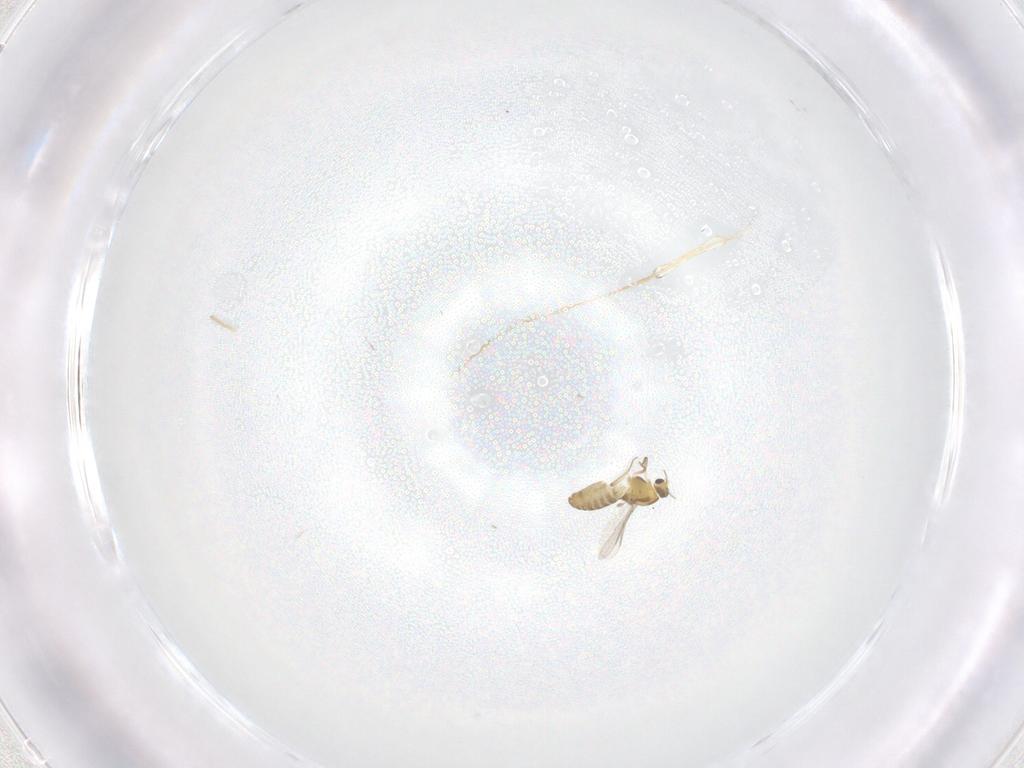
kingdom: Animalia
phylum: Arthropoda
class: Insecta
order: Diptera
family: Chironomidae
